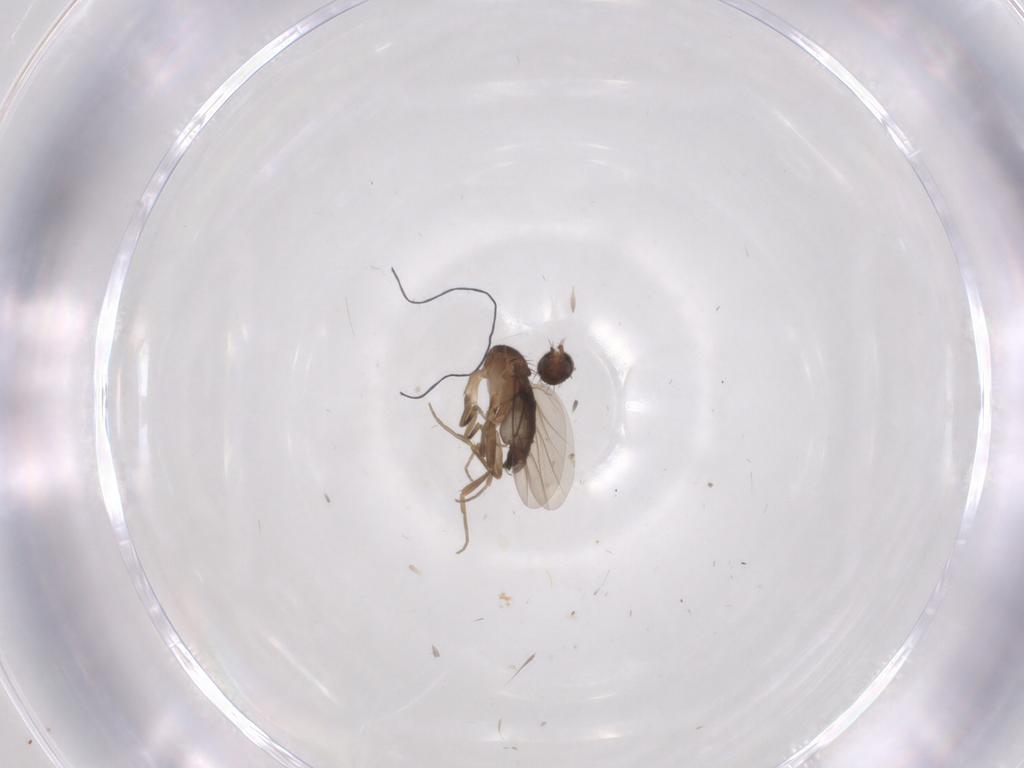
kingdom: Animalia
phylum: Arthropoda
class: Insecta
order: Diptera
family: Phoridae
